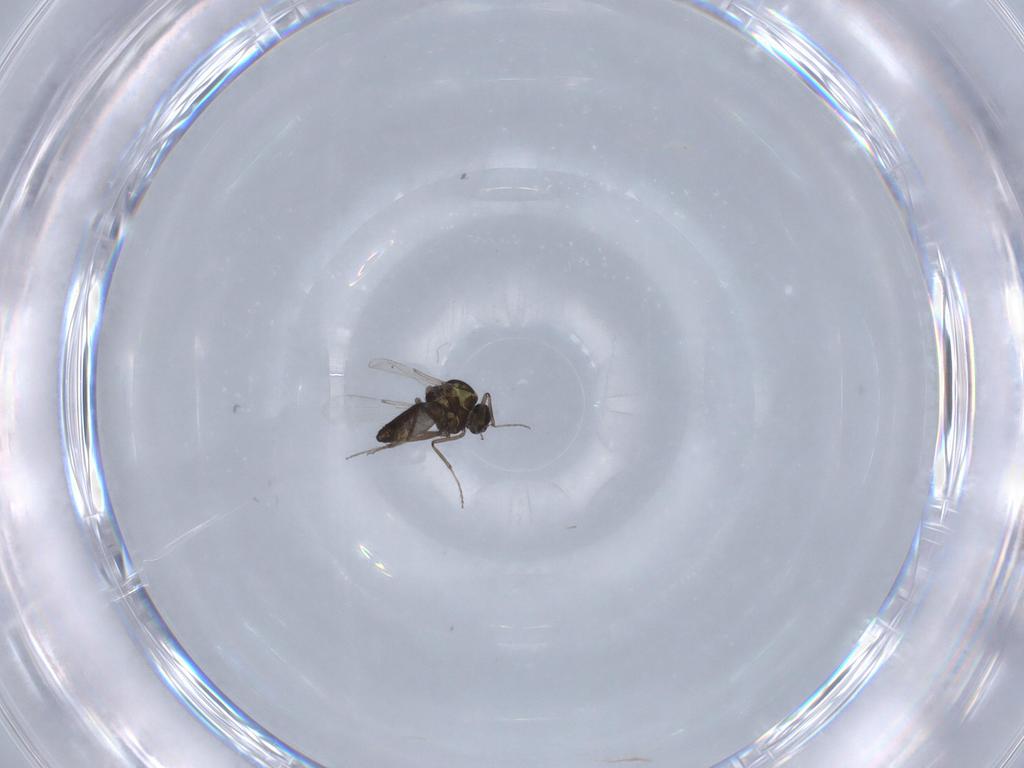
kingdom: Animalia
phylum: Arthropoda
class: Insecta
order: Diptera
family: Ceratopogonidae
